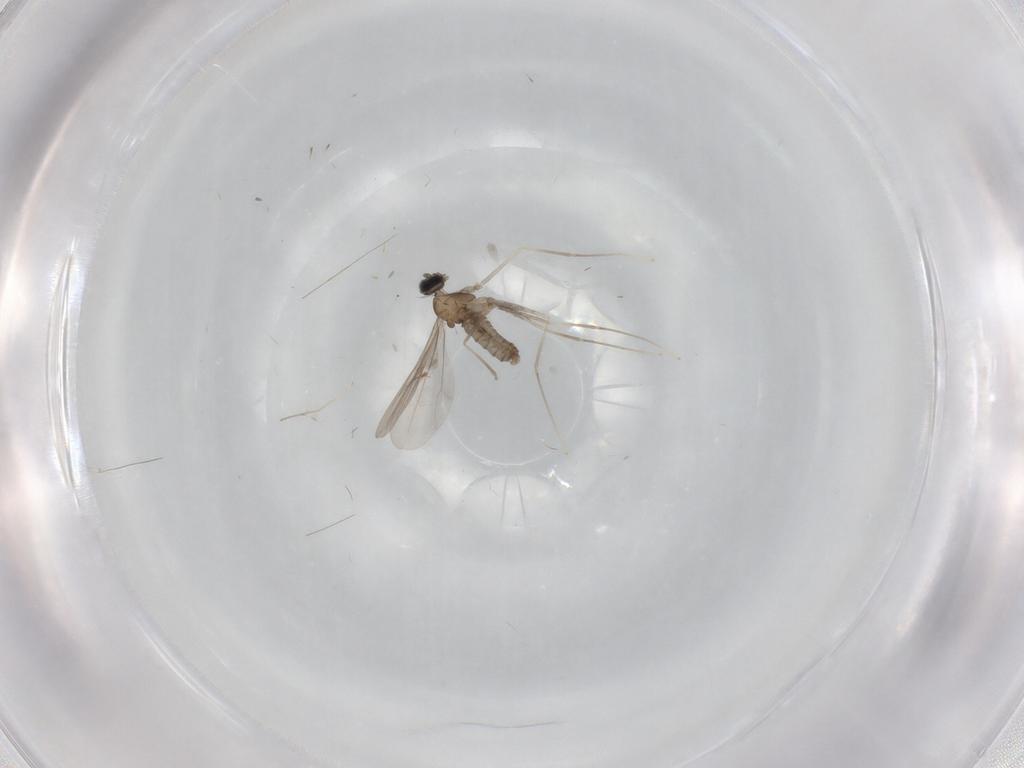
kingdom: Animalia
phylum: Arthropoda
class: Insecta
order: Diptera
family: Cecidomyiidae
